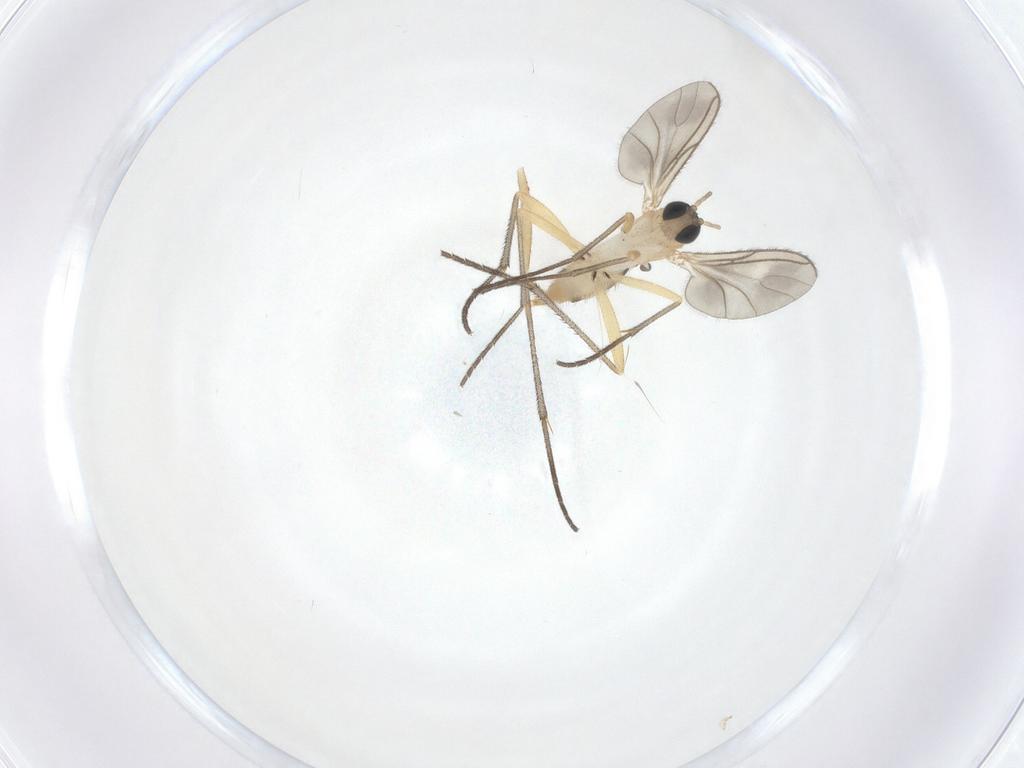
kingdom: Animalia
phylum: Arthropoda
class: Insecta
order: Diptera
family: Sciaridae
